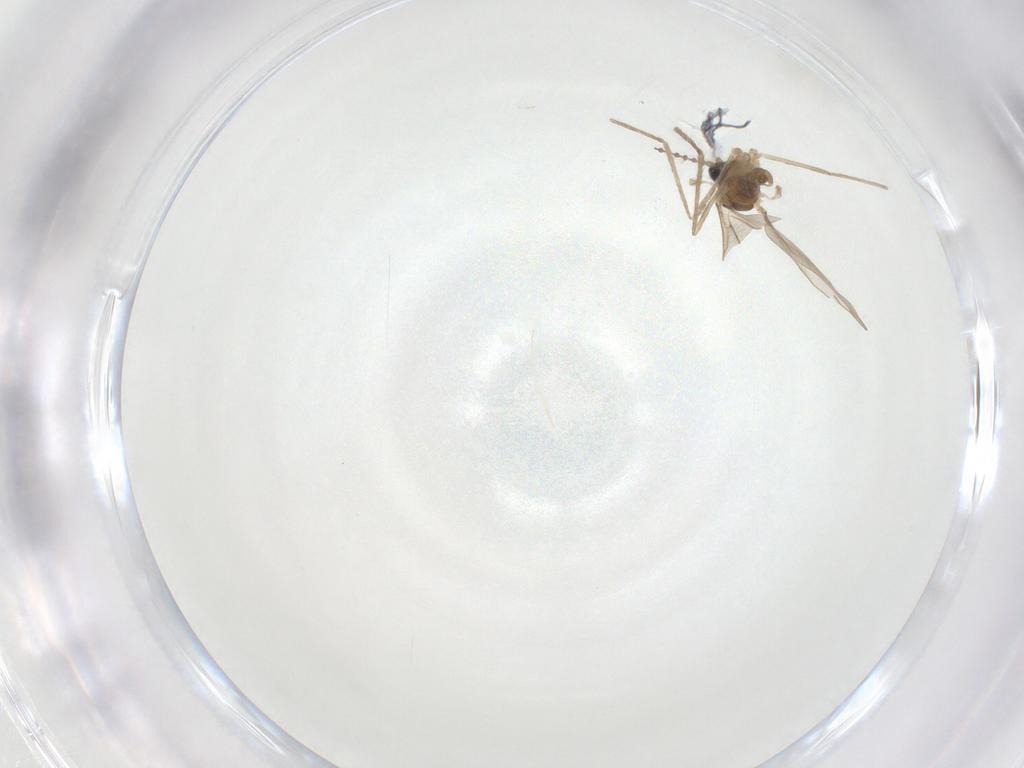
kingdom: Animalia
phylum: Arthropoda
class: Insecta
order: Diptera
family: Cecidomyiidae
